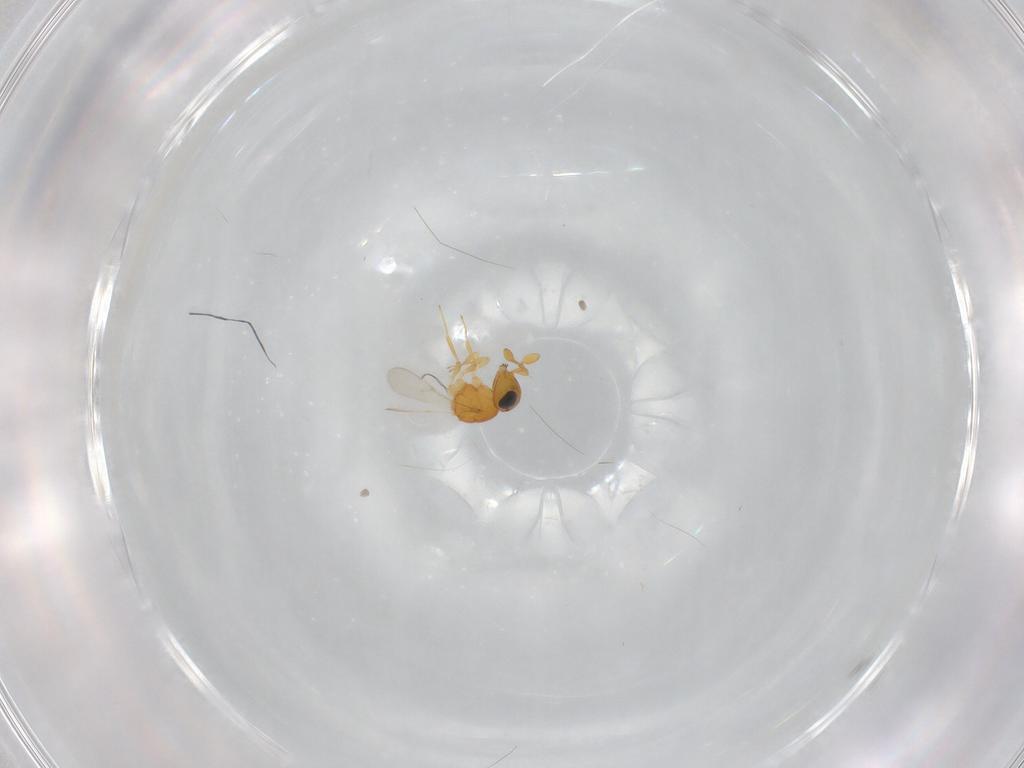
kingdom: Animalia
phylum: Arthropoda
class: Insecta
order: Hymenoptera
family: Scelionidae
